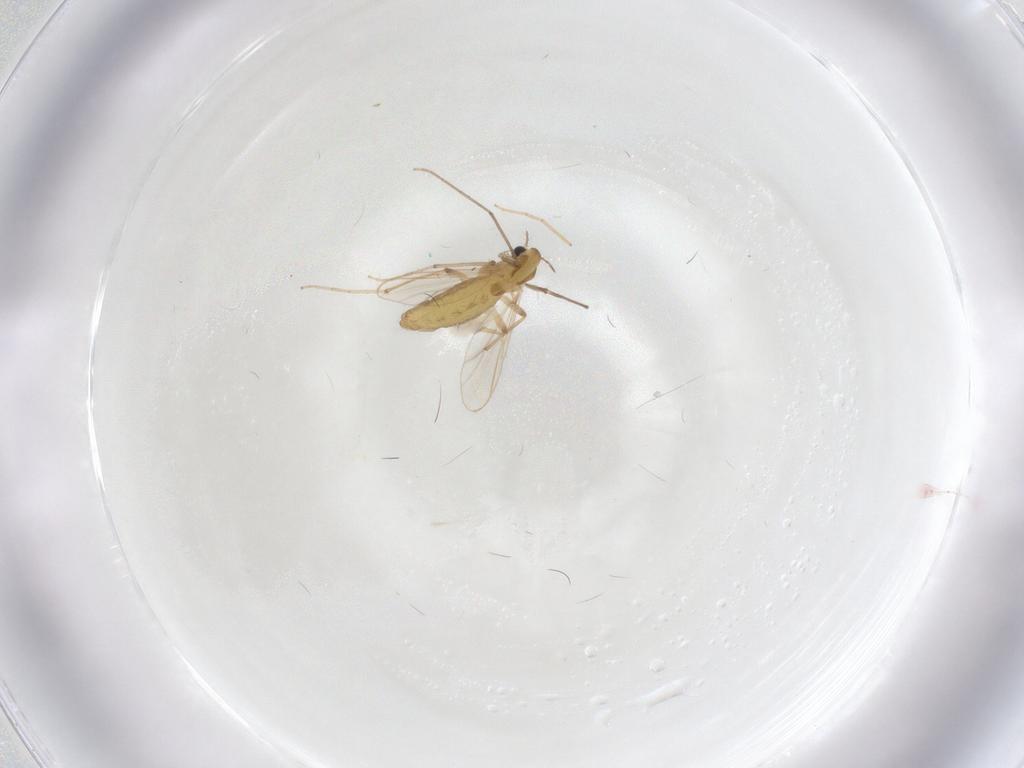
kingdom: Animalia
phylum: Arthropoda
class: Insecta
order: Diptera
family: Chironomidae
